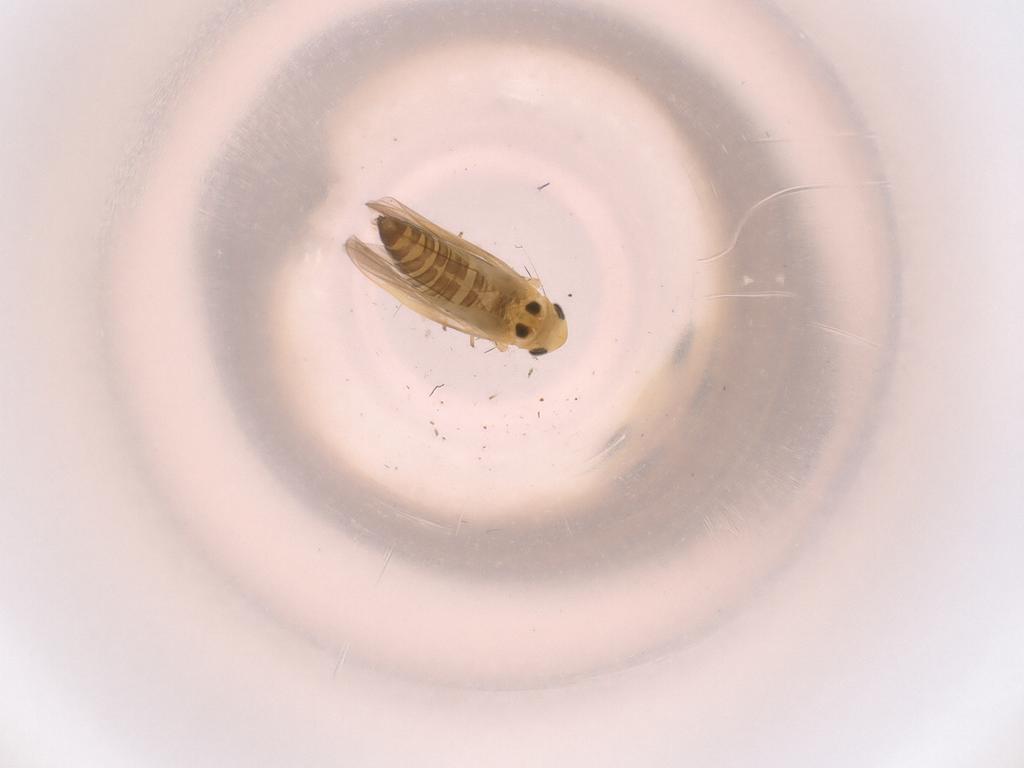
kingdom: Animalia
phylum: Arthropoda
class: Insecta
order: Hemiptera
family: Cicadellidae
